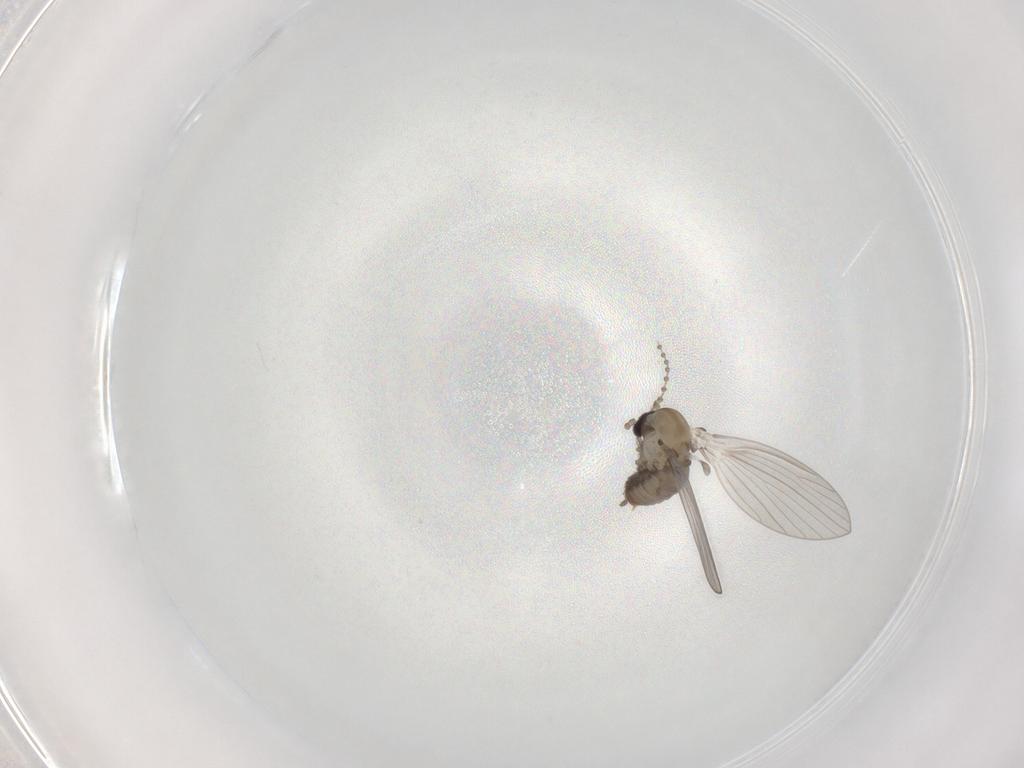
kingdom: Animalia
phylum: Arthropoda
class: Insecta
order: Diptera
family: Psychodidae
